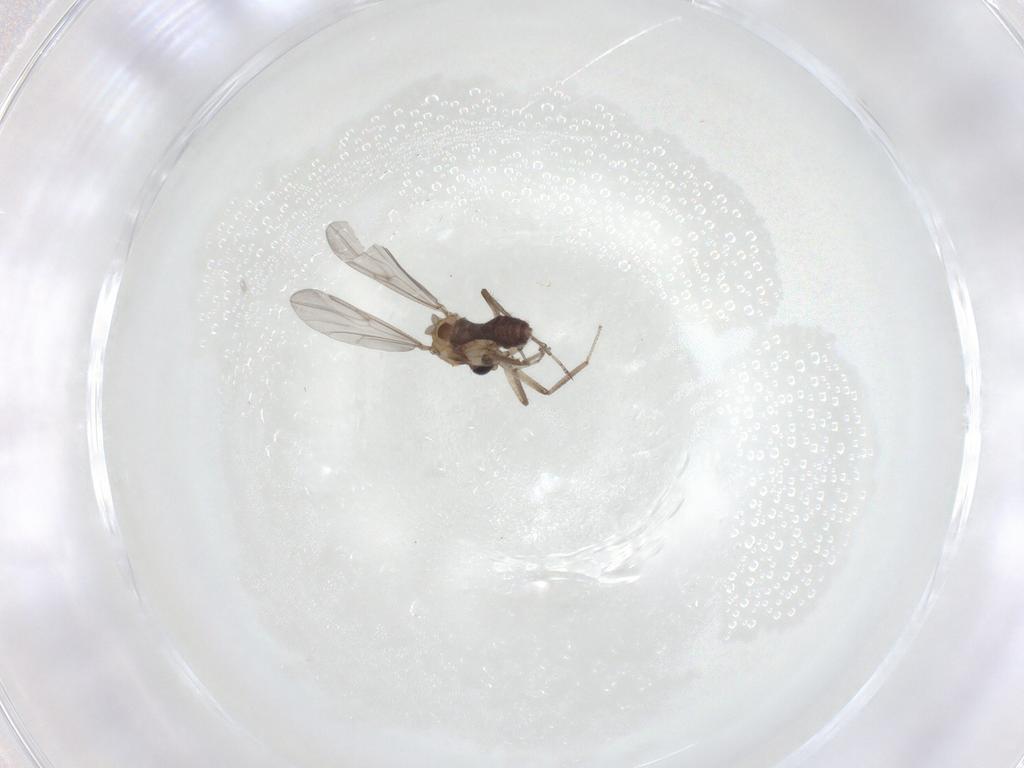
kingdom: Animalia
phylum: Arthropoda
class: Insecta
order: Diptera
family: Ceratopogonidae
